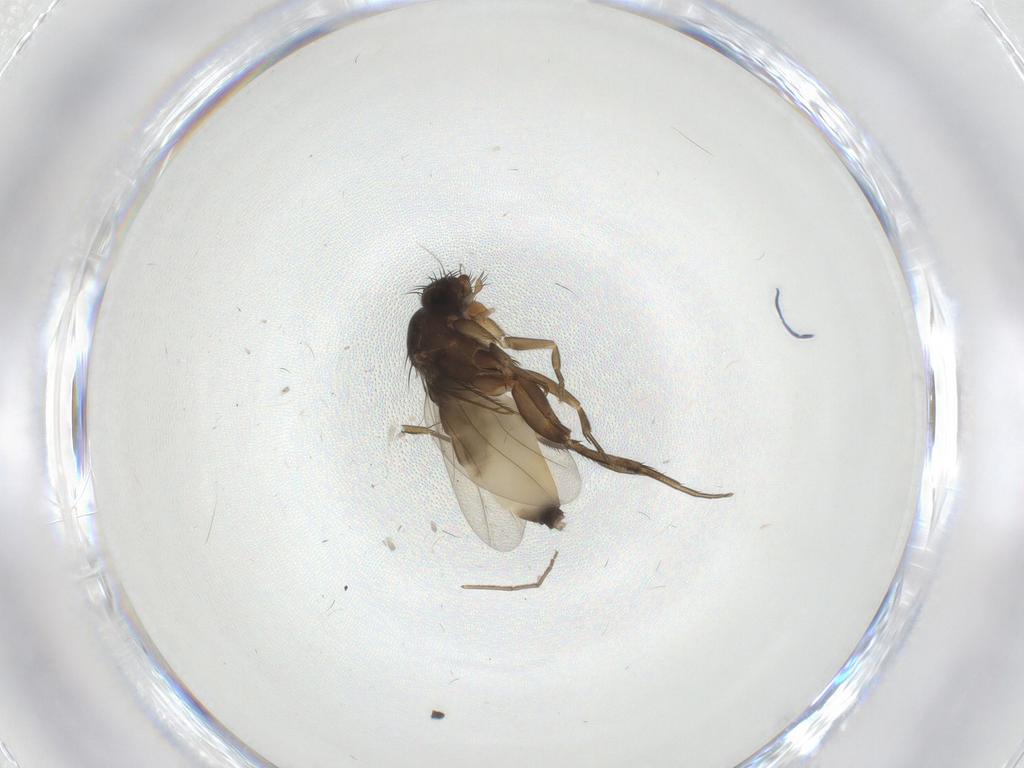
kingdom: Animalia
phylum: Arthropoda
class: Insecta
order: Diptera
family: Phoridae
